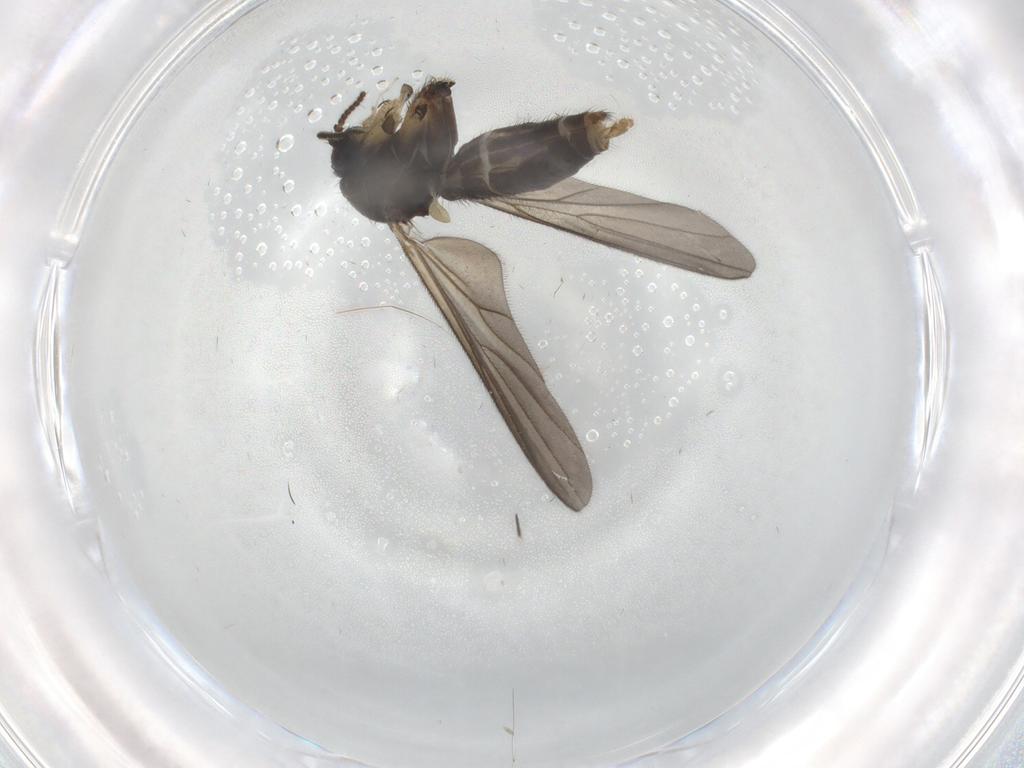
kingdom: Animalia
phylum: Arthropoda
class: Insecta
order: Diptera
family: Mycetophilidae
